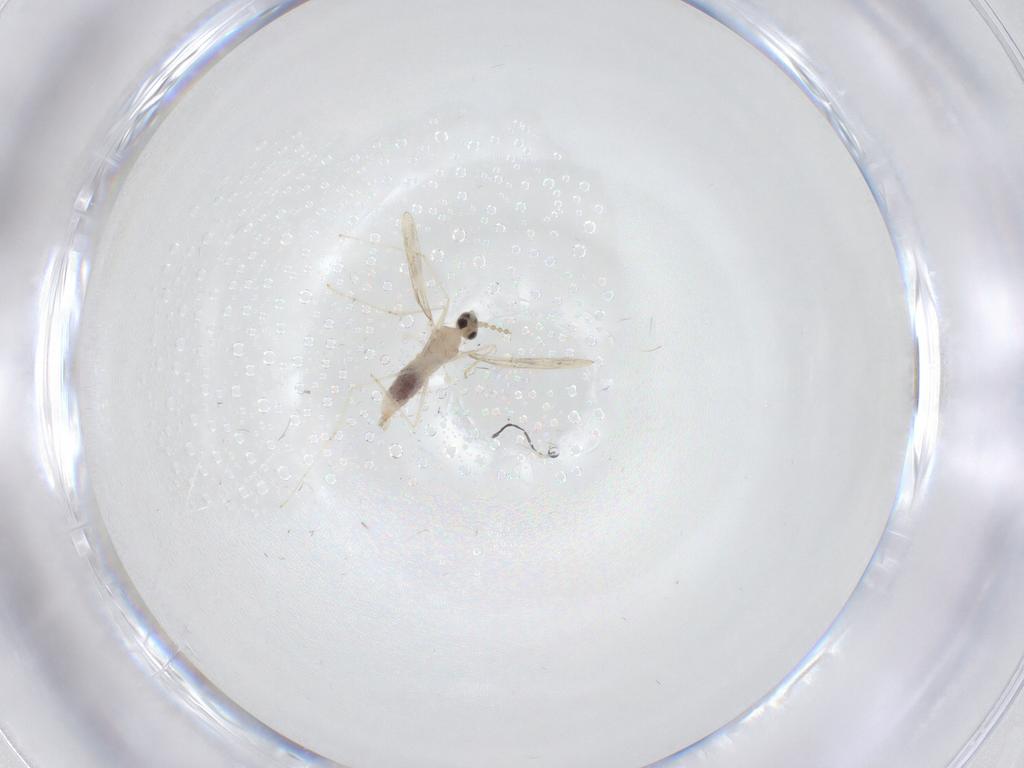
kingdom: Animalia
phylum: Arthropoda
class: Insecta
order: Diptera
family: Cecidomyiidae
